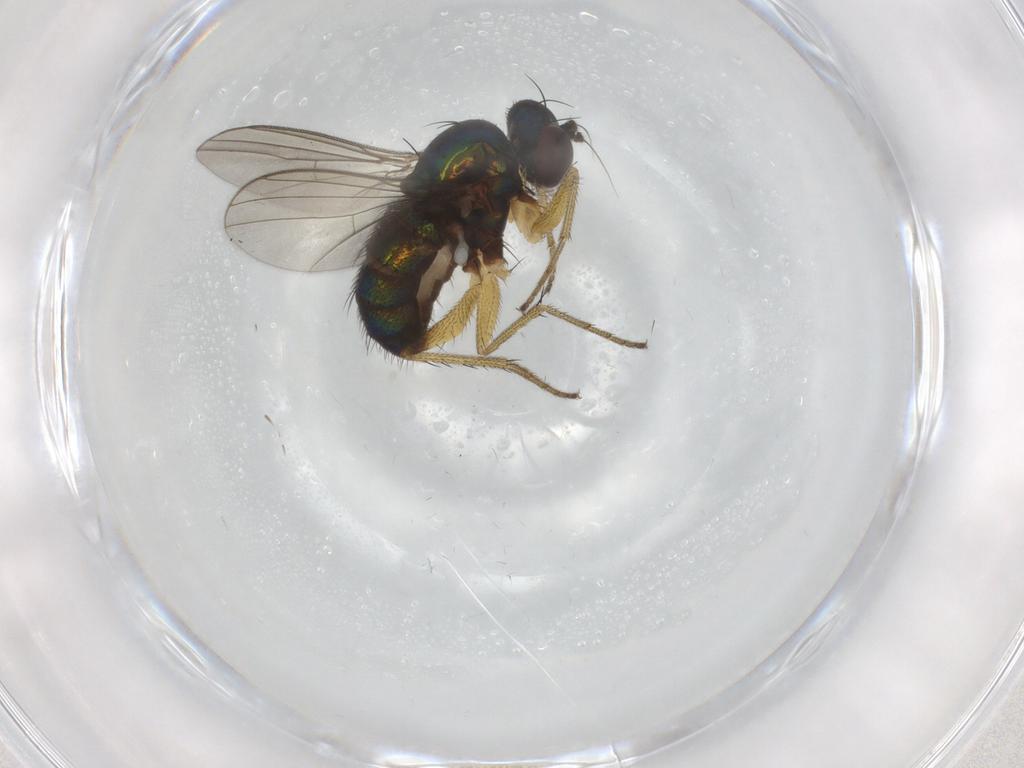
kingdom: Animalia
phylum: Arthropoda
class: Insecta
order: Diptera
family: Dolichopodidae
